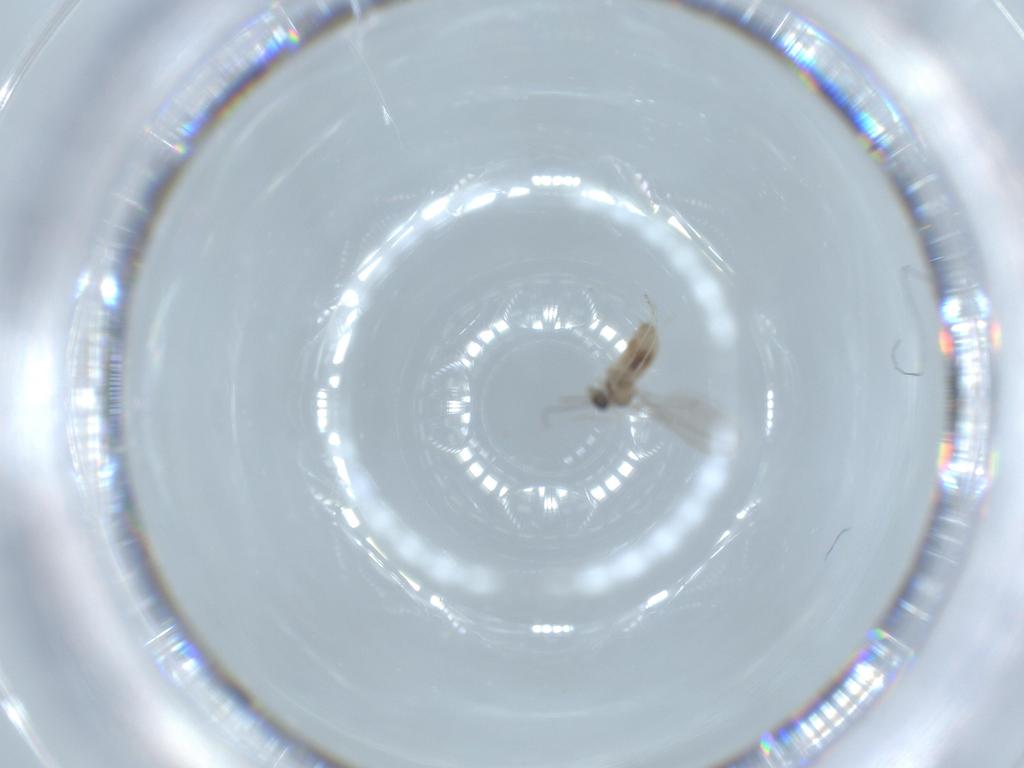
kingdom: Animalia
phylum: Arthropoda
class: Insecta
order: Diptera
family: Cecidomyiidae
